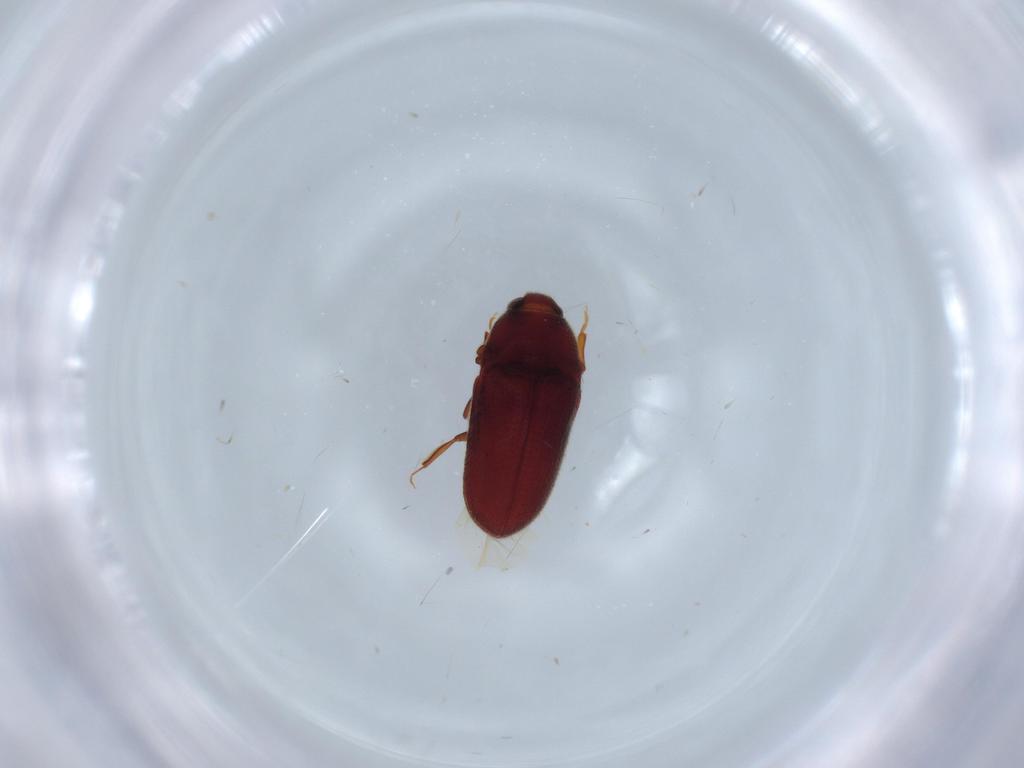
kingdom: Animalia
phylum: Arthropoda
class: Insecta
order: Coleoptera
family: Throscidae
